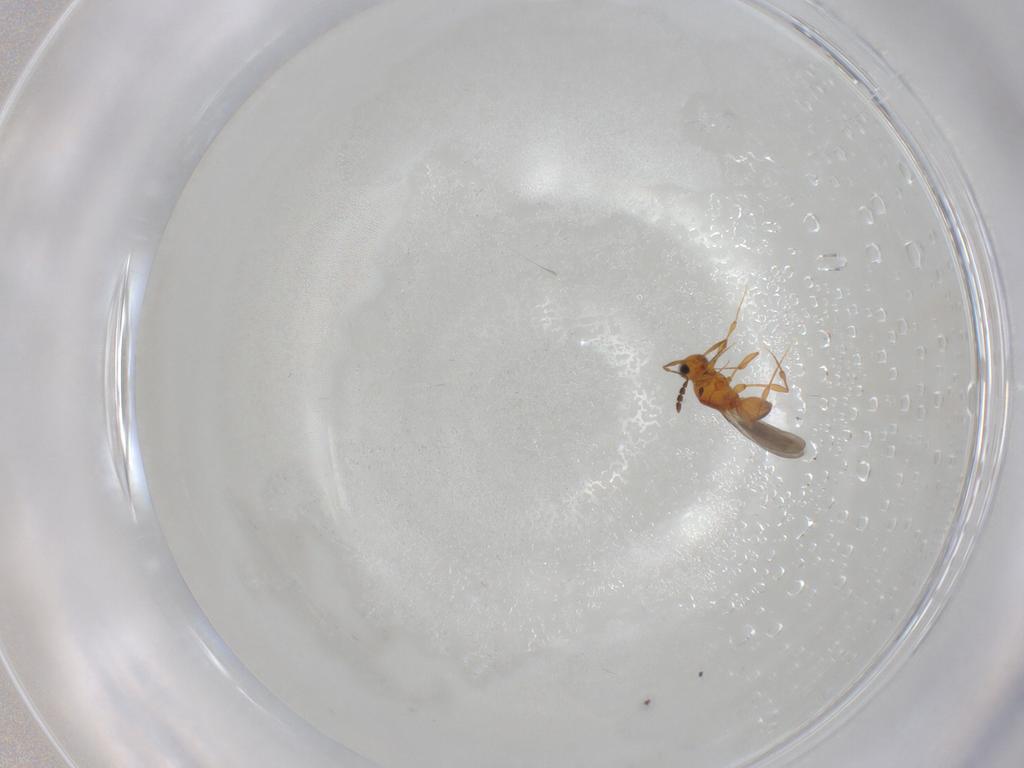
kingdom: Animalia
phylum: Arthropoda
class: Insecta
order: Hymenoptera
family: Platygastridae
